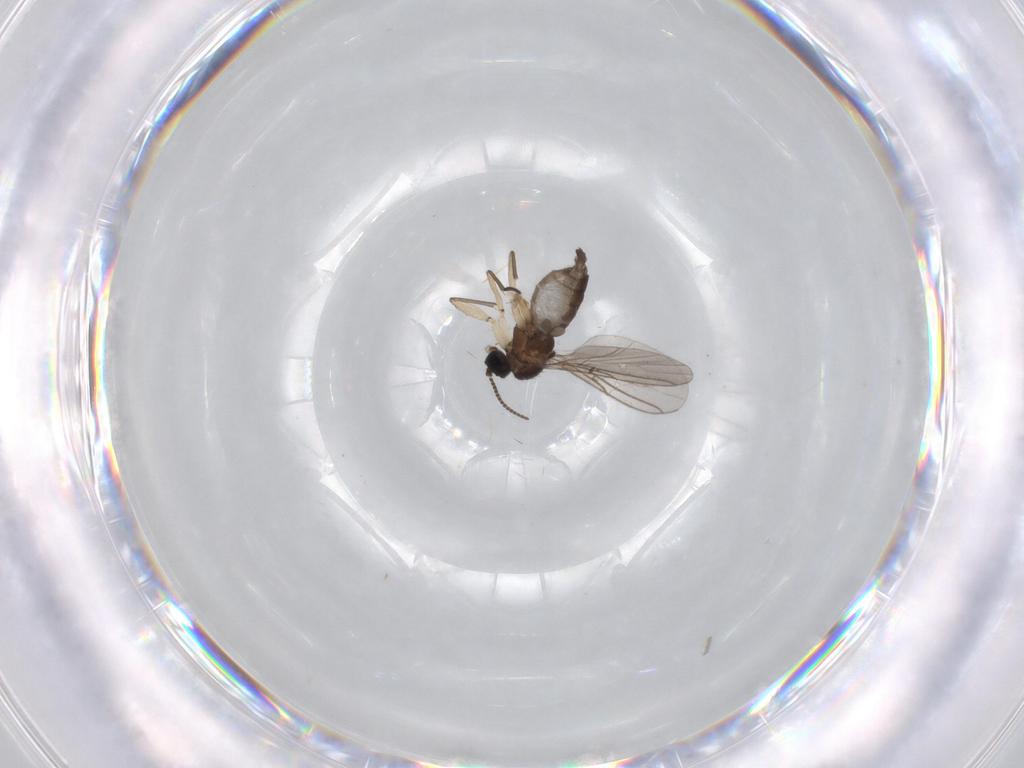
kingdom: Animalia
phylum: Arthropoda
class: Insecta
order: Diptera
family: Sciaridae
